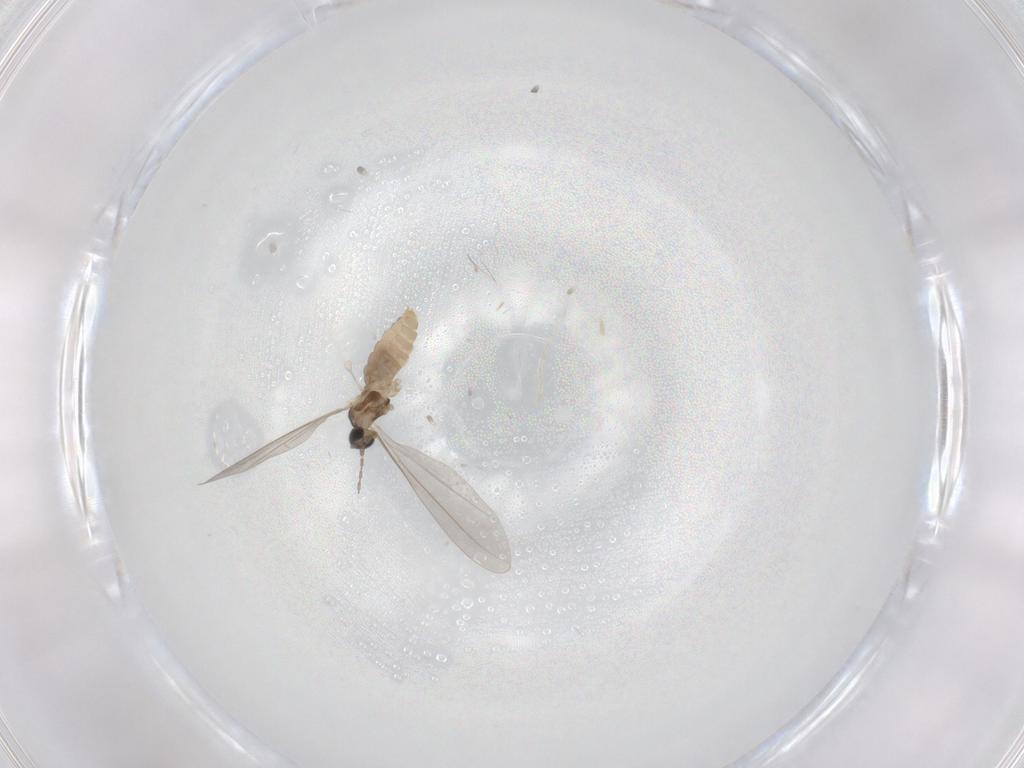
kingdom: Animalia
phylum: Arthropoda
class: Insecta
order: Diptera
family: Cecidomyiidae
